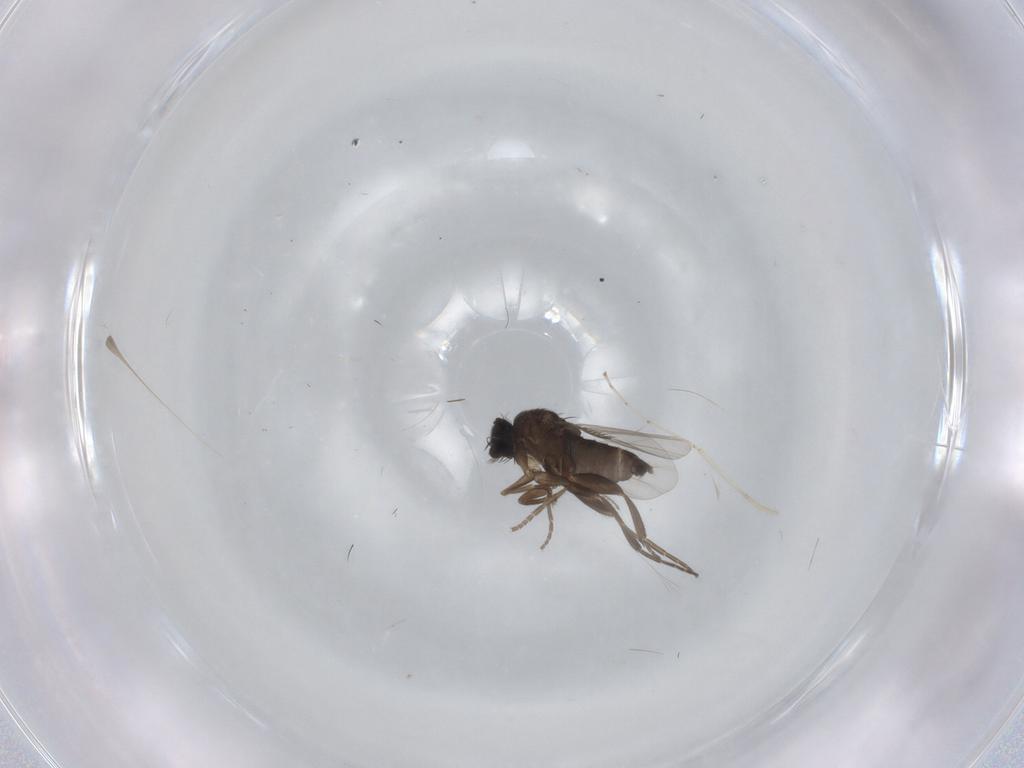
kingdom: Animalia
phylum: Arthropoda
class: Insecta
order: Diptera
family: Phoridae
